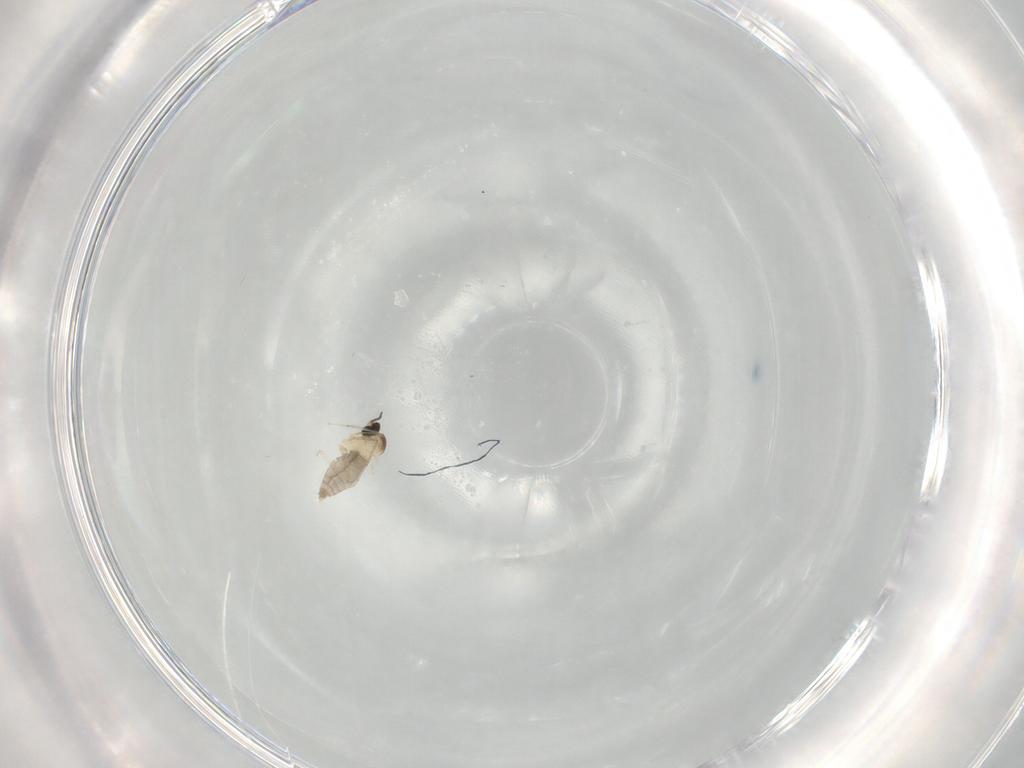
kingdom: Animalia
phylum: Arthropoda
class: Insecta
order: Diptera
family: Cecidomyiidae
